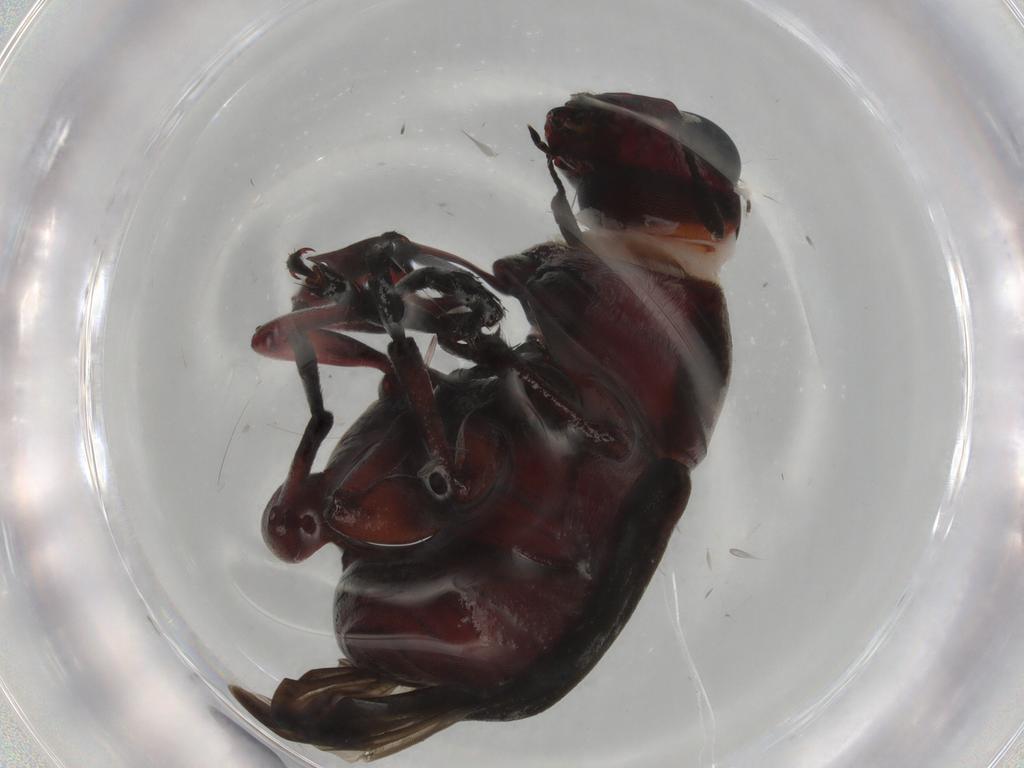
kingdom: Animalia
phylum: Arthropoda
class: Insecta
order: Coleoptera
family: Anthribidae
